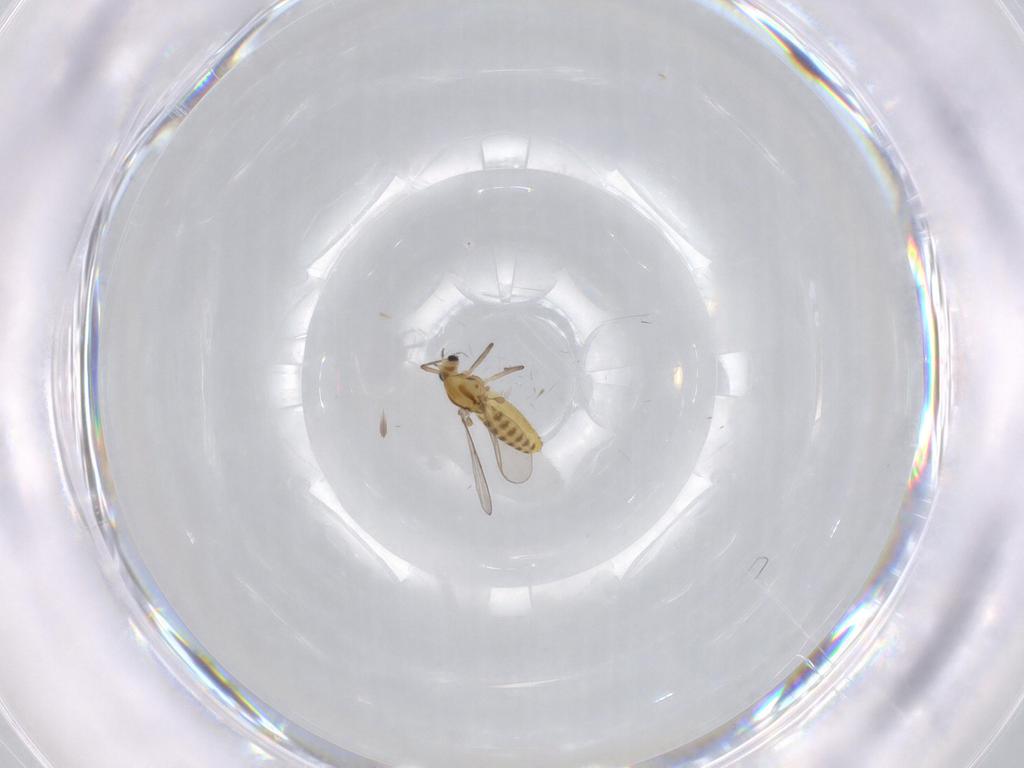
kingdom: Animalia
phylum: Arthropoda
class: Insecta
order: Diptera
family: Chironomidae
